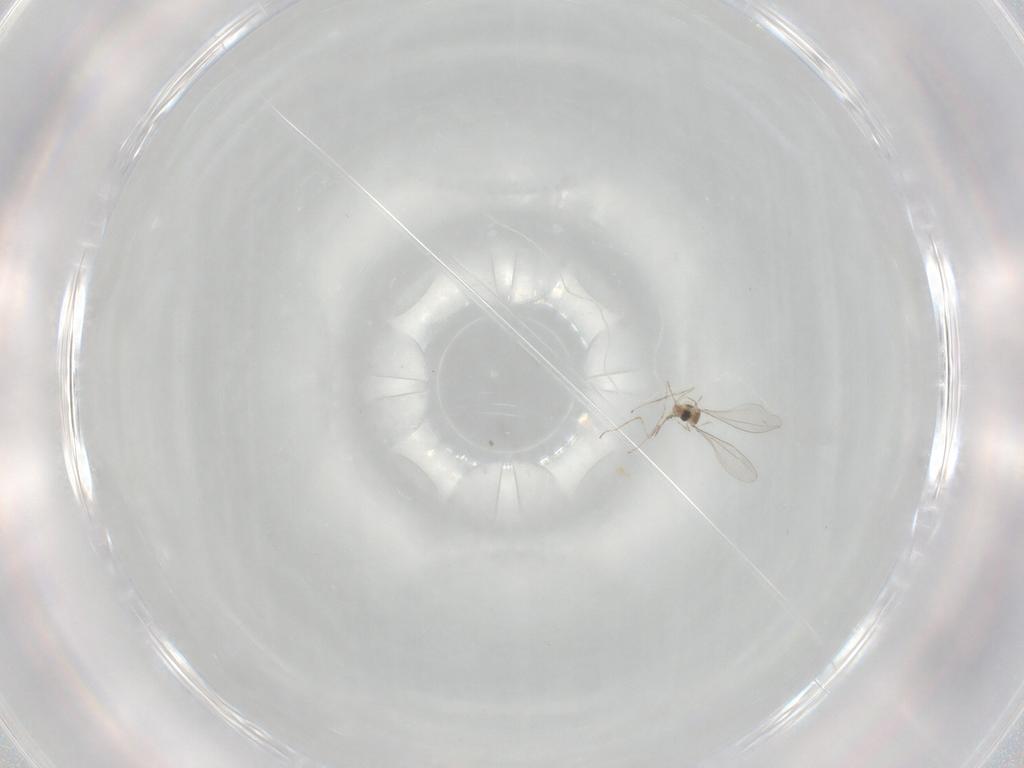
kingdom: Animalia
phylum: Arthropoda
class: Insecta
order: Diptera
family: Cecidomyiidae
